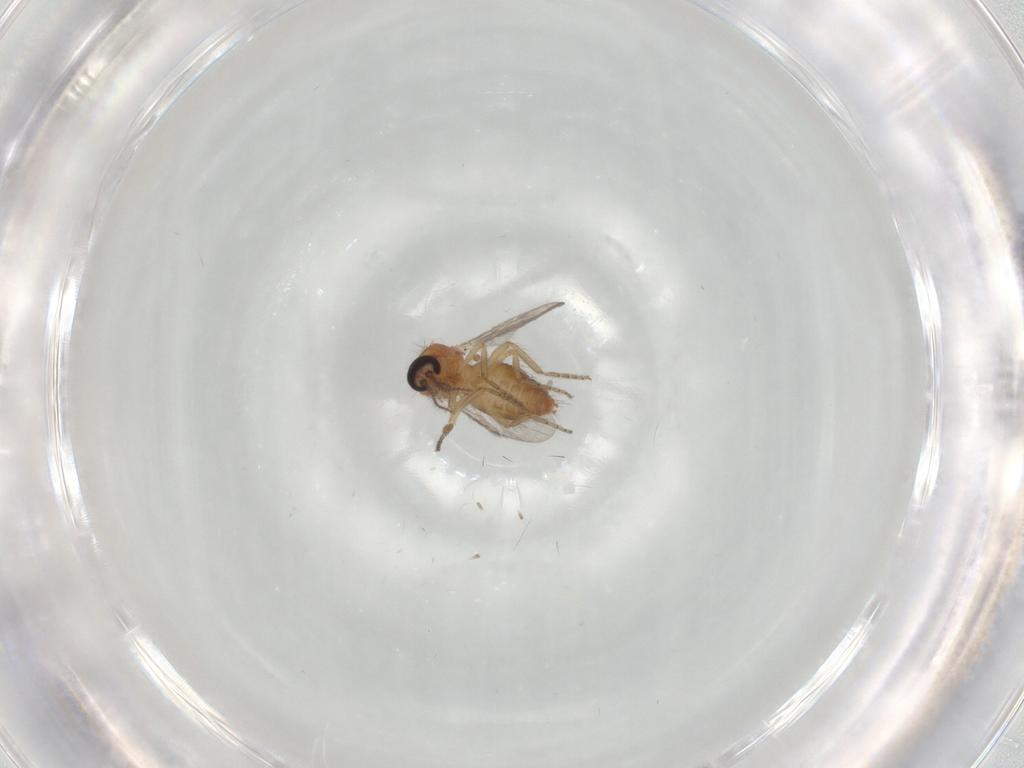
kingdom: Animalia
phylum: Arthropoda
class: Insecta
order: Diptera
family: Ceratopogonidae
